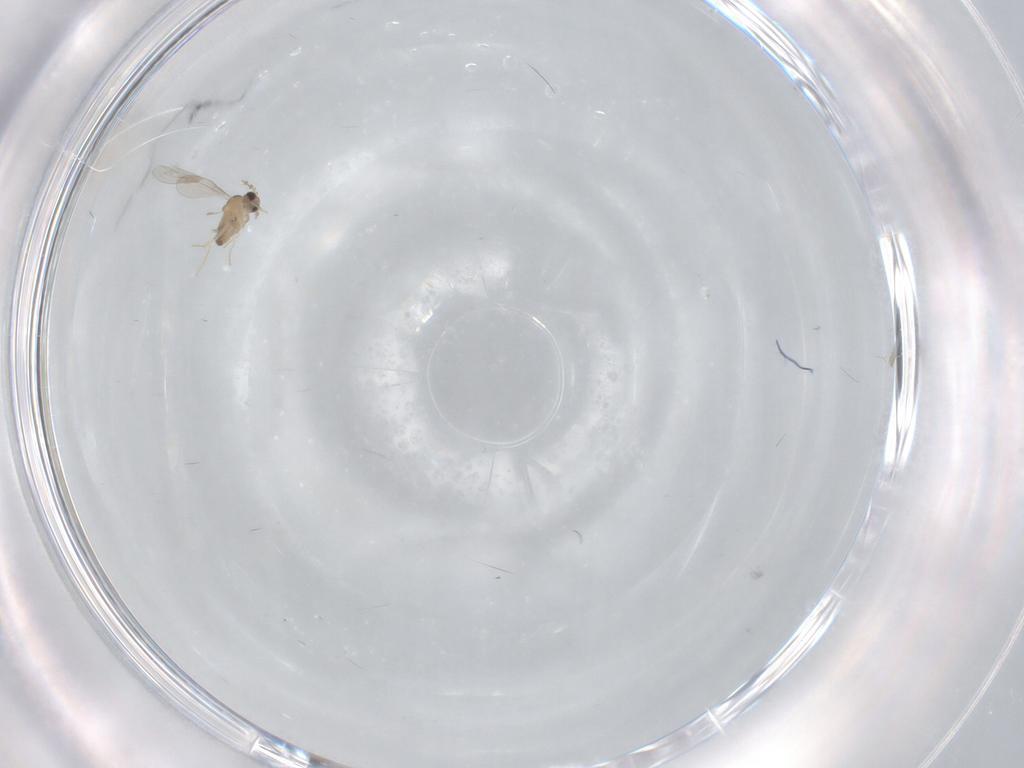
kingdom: Animalia
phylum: Arthropoda
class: Insecta
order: Diptera
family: Cecidomyiidae
